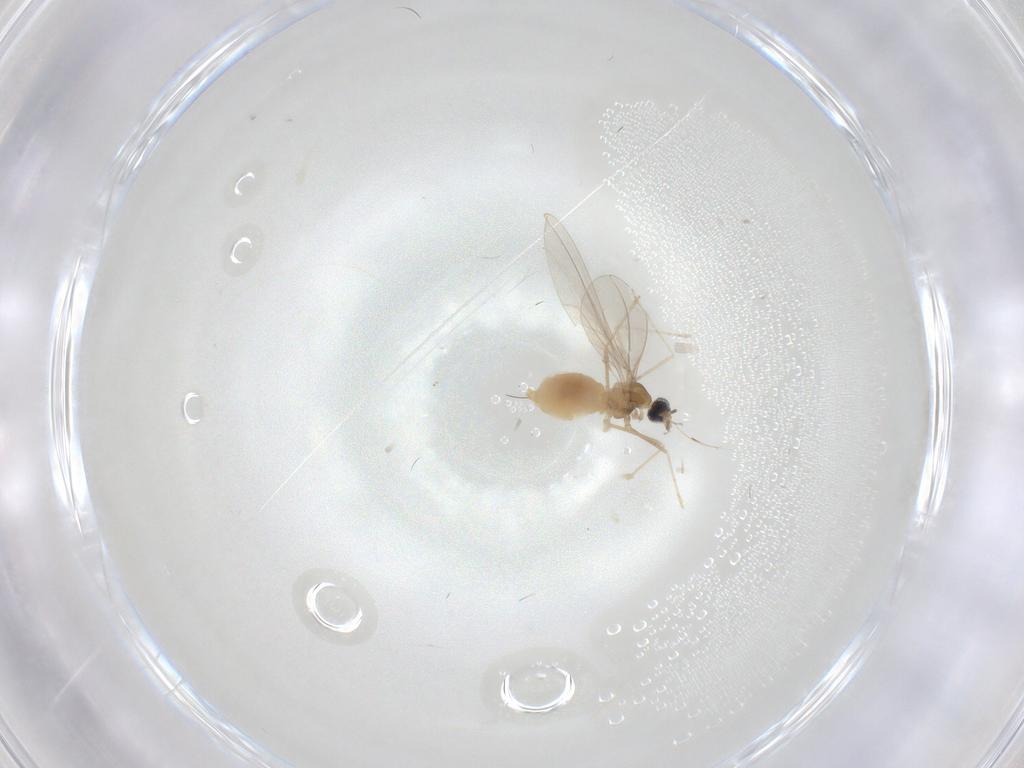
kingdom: Animalia
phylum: Arthropoda
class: Insecta
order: Diptera
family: Cecidomyiidae
